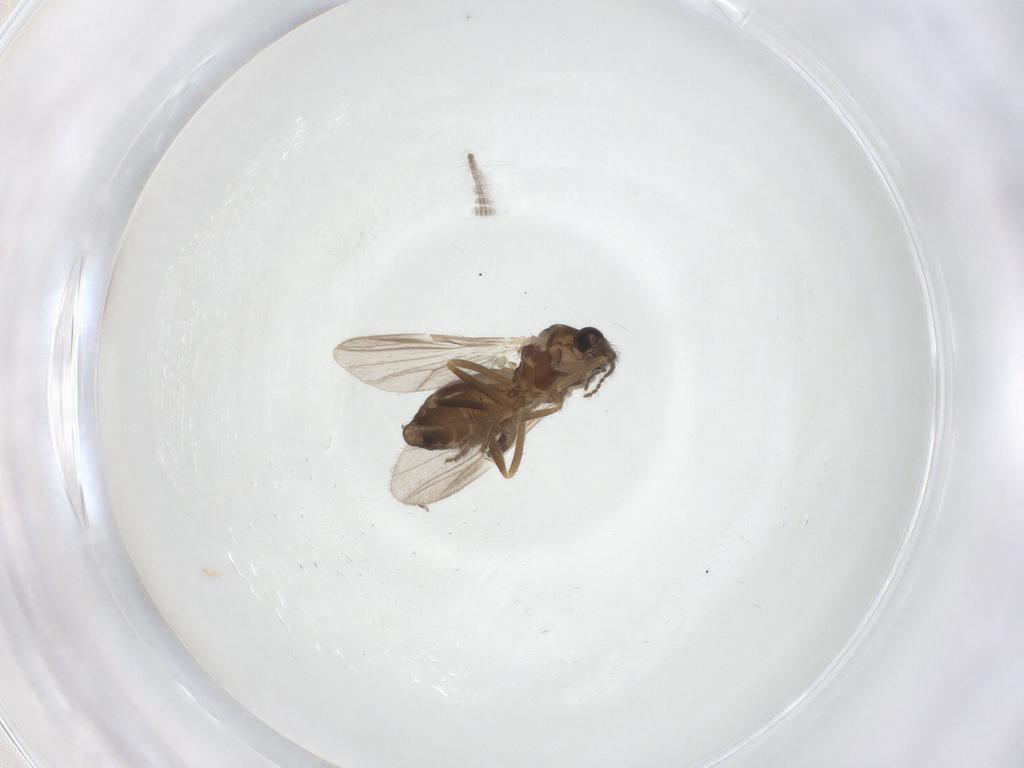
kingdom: Animalia
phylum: Arthropoda
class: Insecta
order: Diptera
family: Ceratopogonidae
